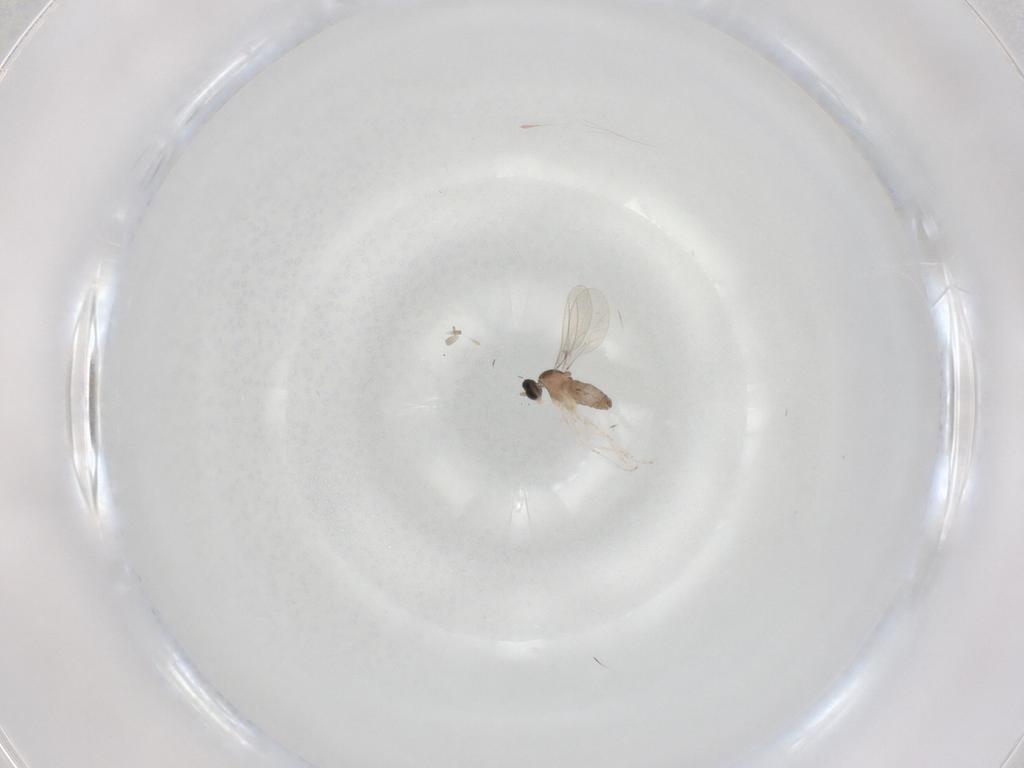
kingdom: Animalia
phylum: Arthropoda
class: Insecta
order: Diptera
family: Cecidomyiidae
